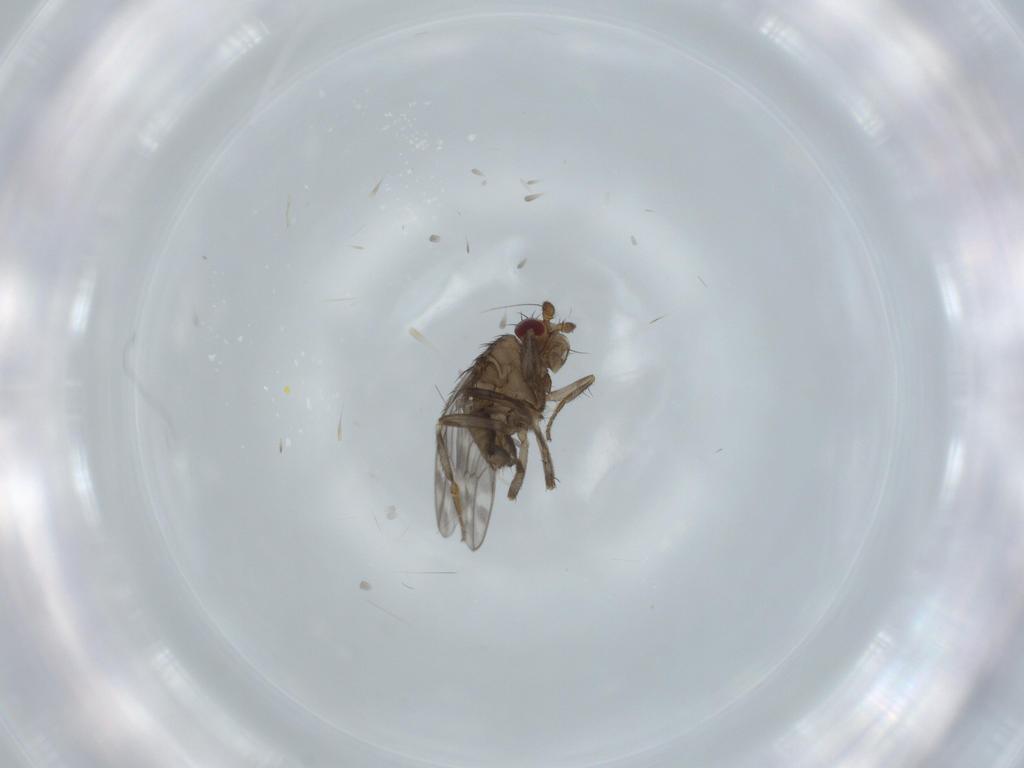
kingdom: Animalia
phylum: Arthropoda
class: Insecta
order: Diptera
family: Sphaeroceridae
